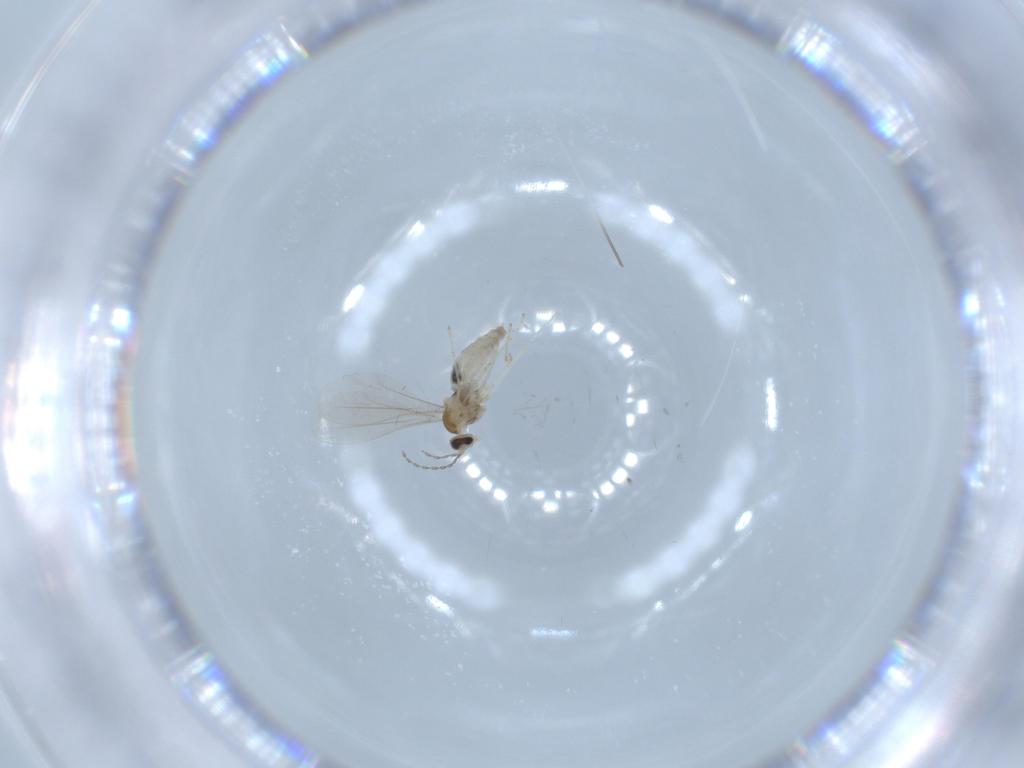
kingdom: Animalia
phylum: Arthropoda
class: Insecta
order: Diptera
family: Cecidomyiidae
